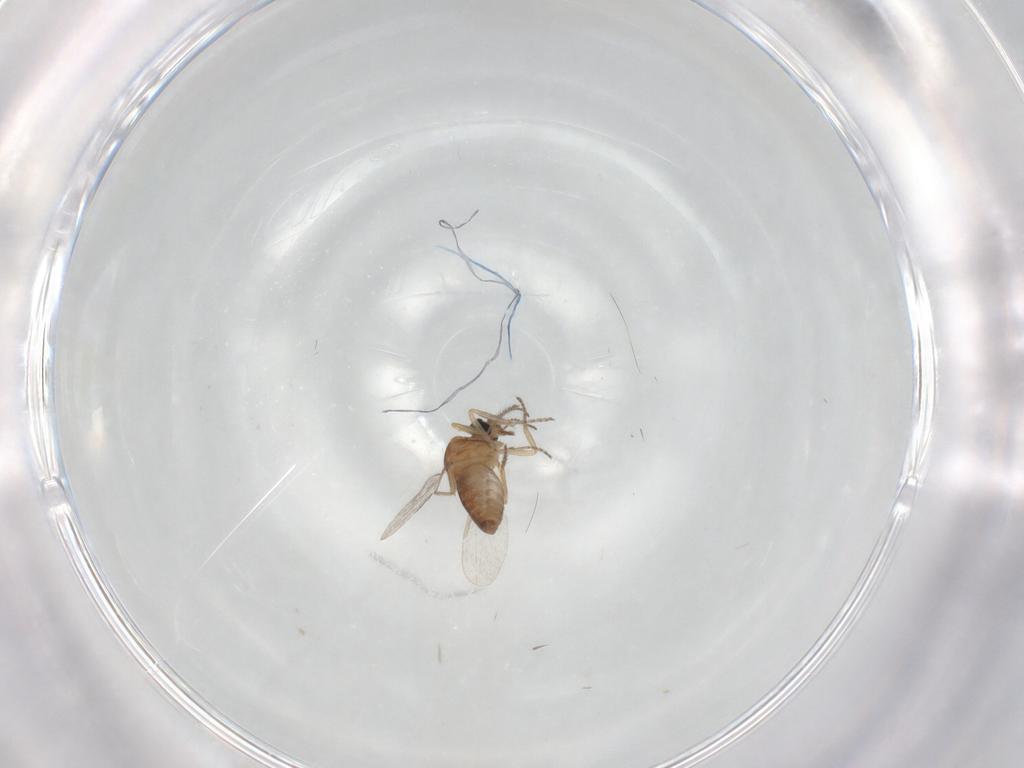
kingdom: Animalia
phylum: Arthropoda
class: Insecta
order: Diptera
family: Ceratopogonidae
